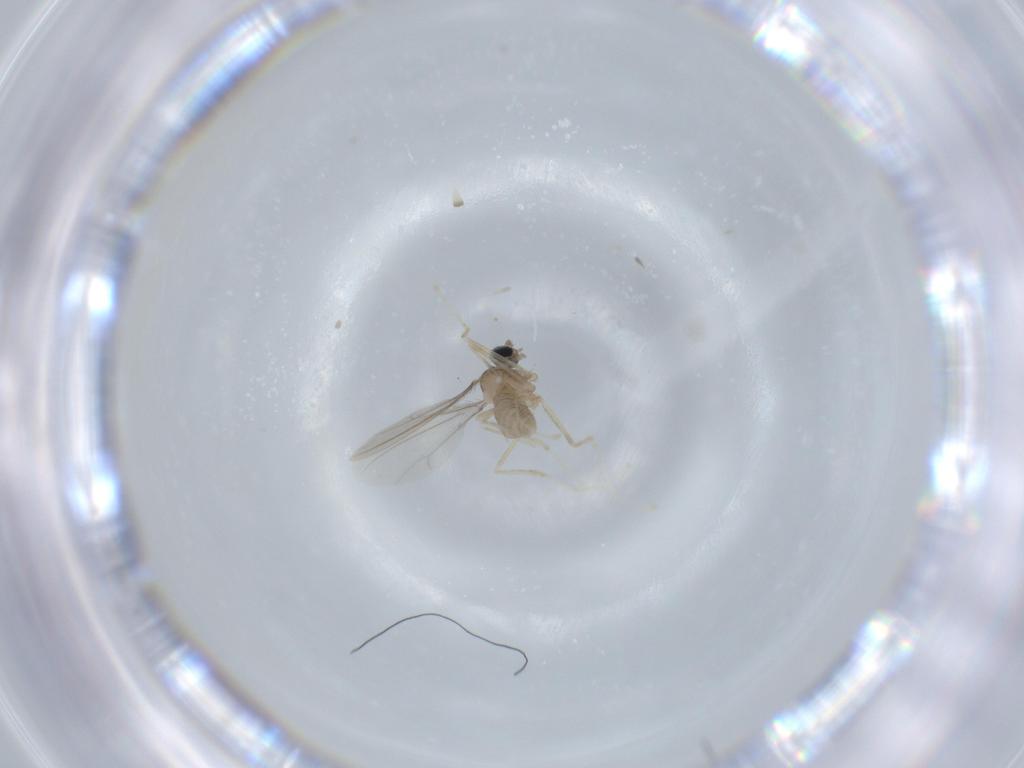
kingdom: Animalia
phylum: Arthropoda
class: Insecta
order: Diptera
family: Cecidomyiidae
